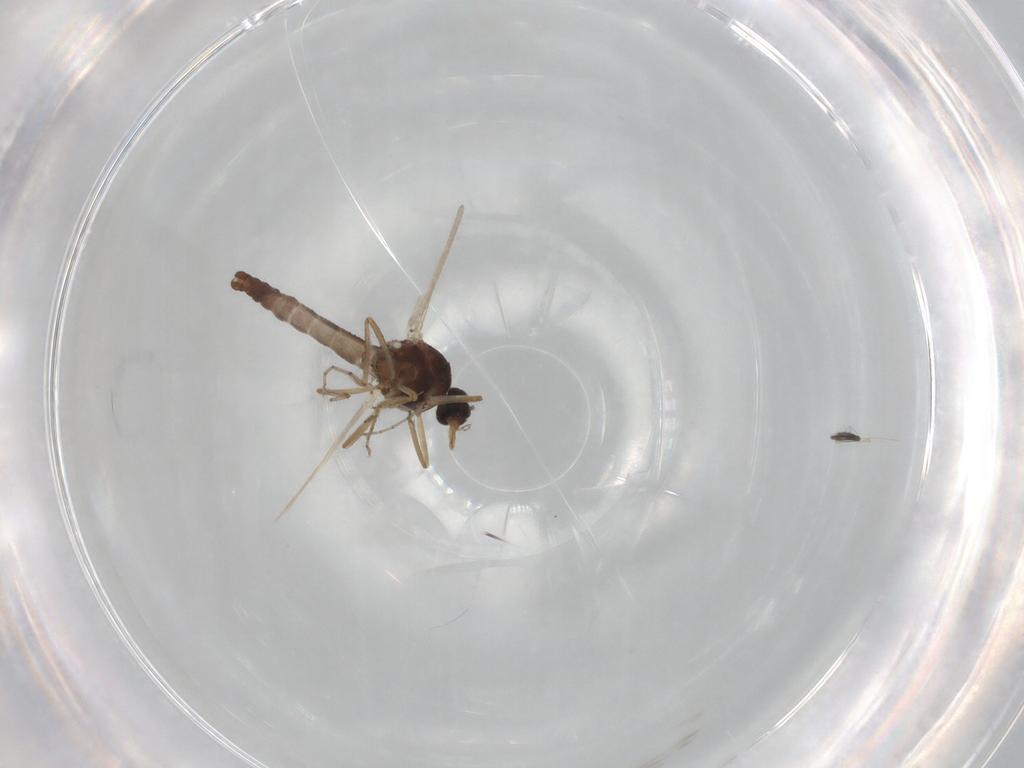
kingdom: Animalia
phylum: Arthropoda
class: Insecta
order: Diptera
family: Ceratopogonidae
